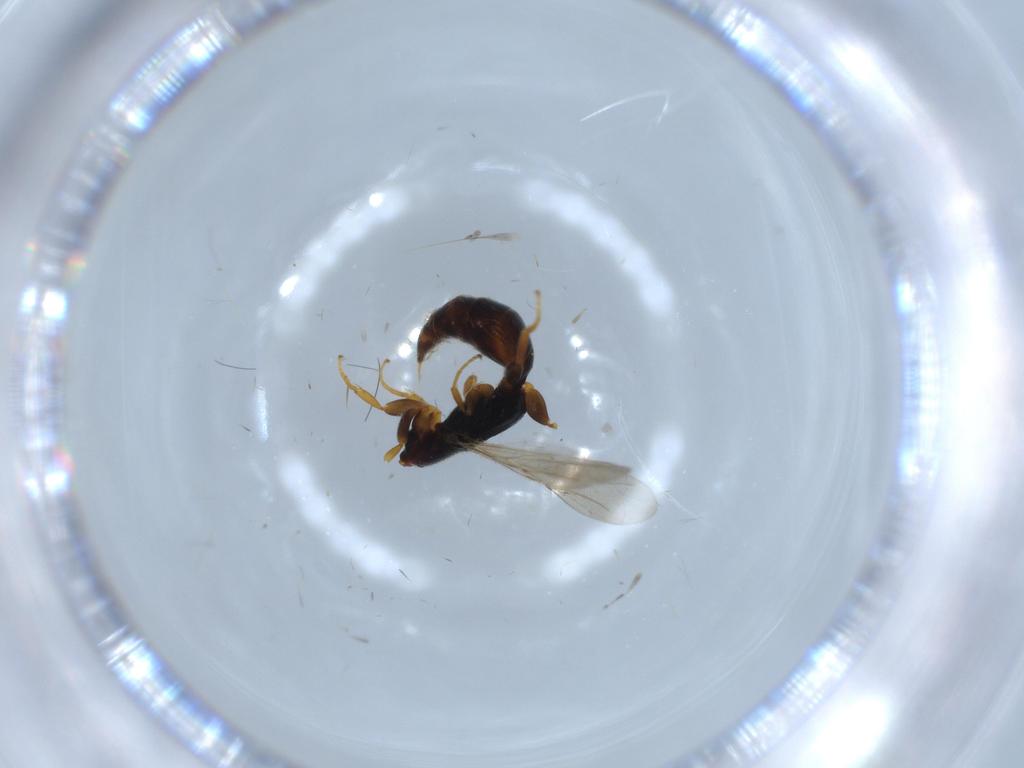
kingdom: Animalia
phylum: Arthropoda
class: Insecta
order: Hymenoptera
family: Bethylidae
